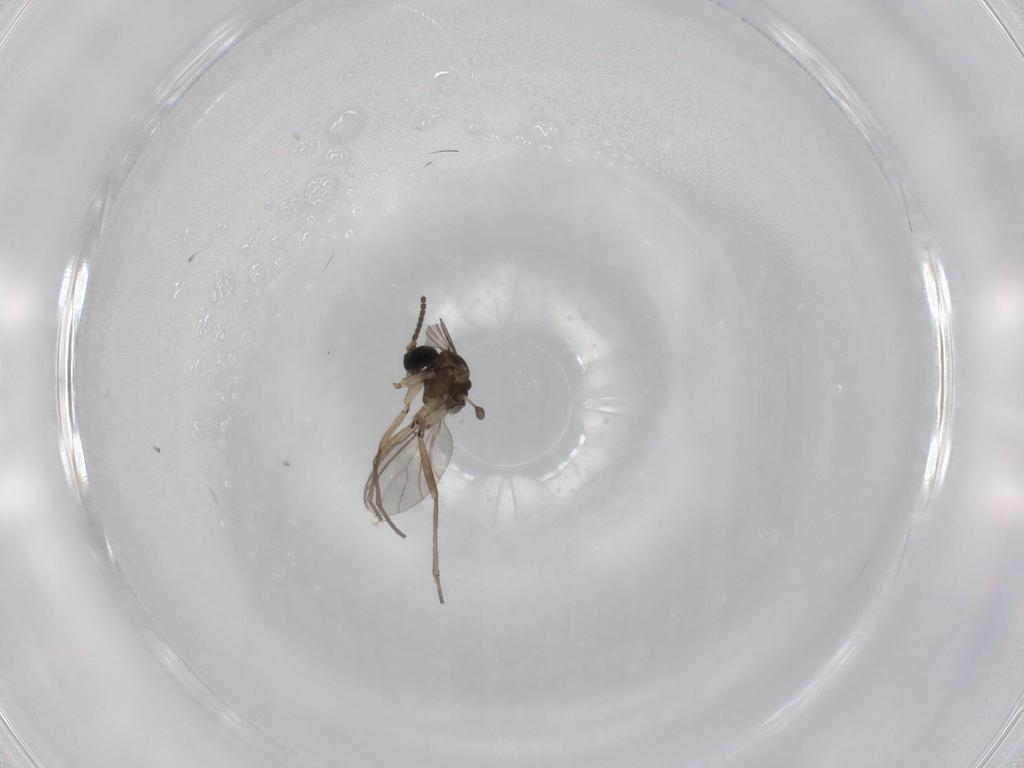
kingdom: Animalia
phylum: Arthropoda
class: Insecta
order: Diptera
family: Sciaridae
